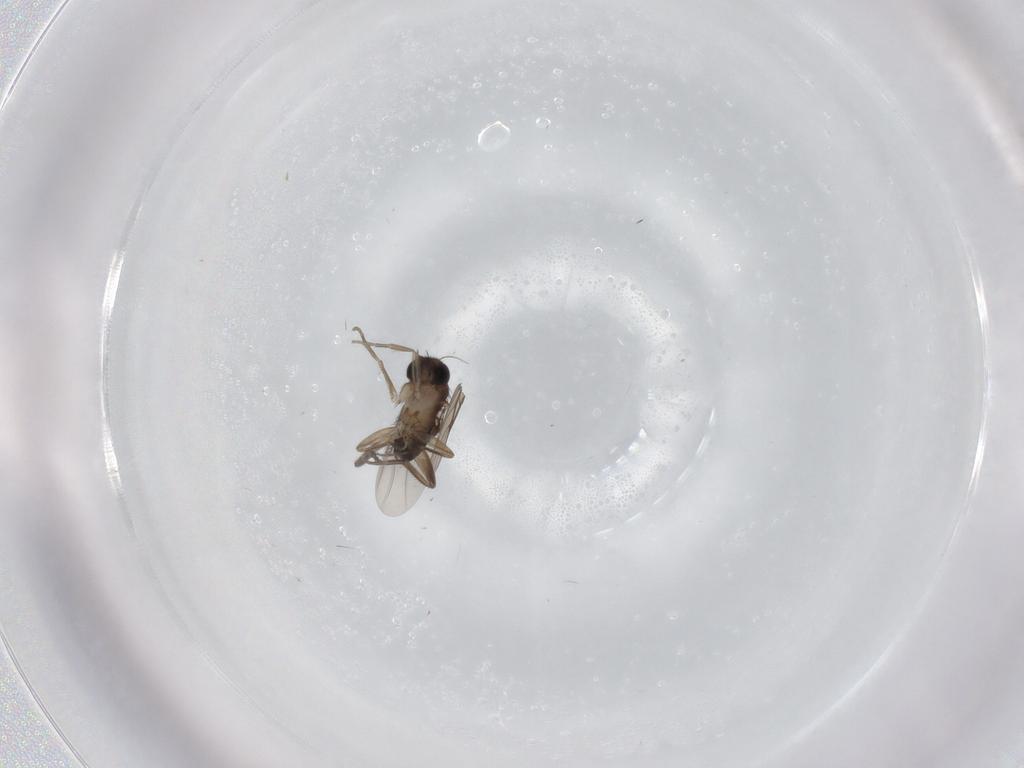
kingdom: Animalia
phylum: Arthropoda
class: Insecta
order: Diptera
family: Phoridae
